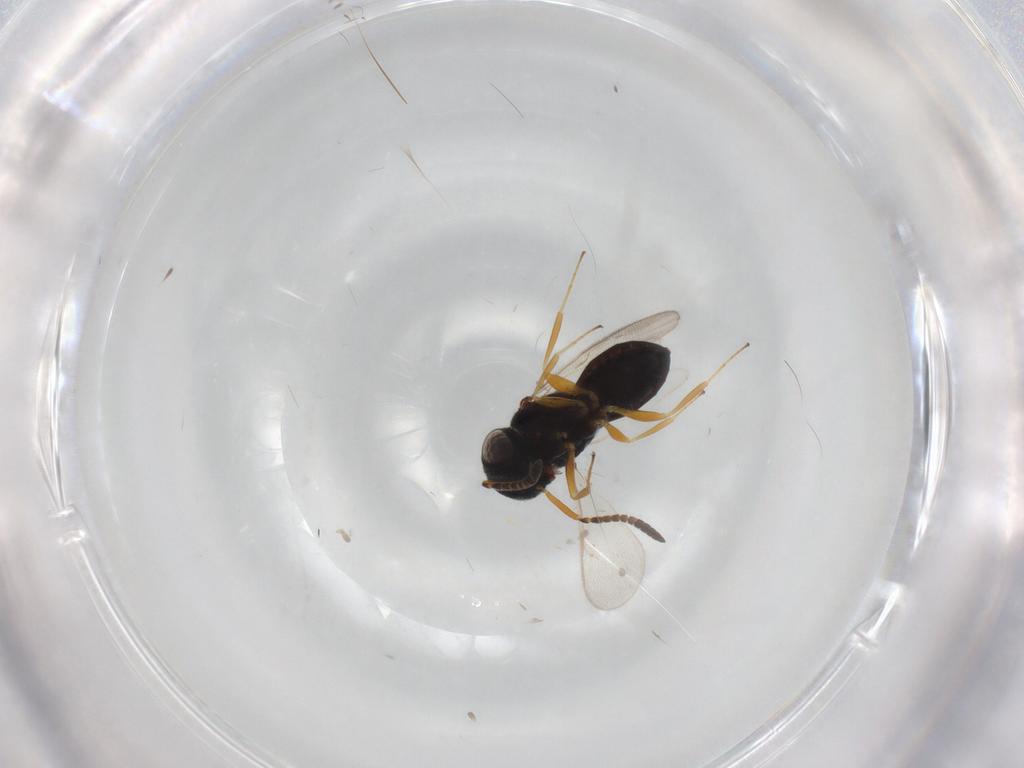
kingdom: Animalia
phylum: Arthropoda
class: Insecta
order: Hymenoptera
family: Scelionidae
